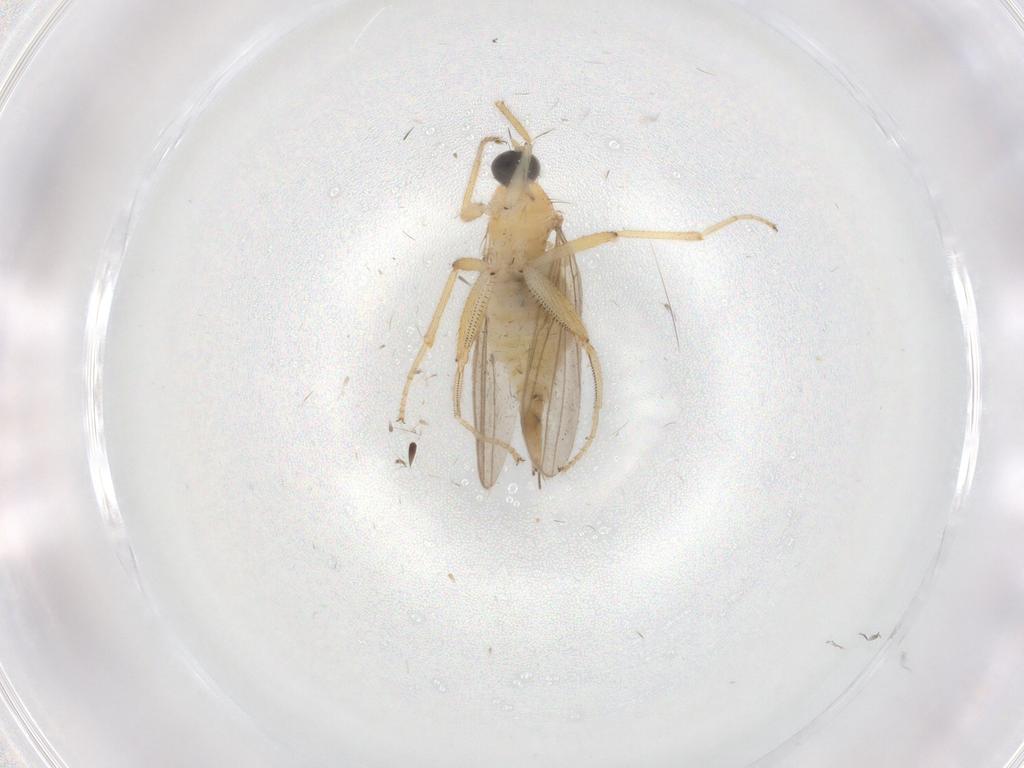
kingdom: Animalia
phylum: Arthropoda
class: Insecta
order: Diptera
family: Hybotidae
